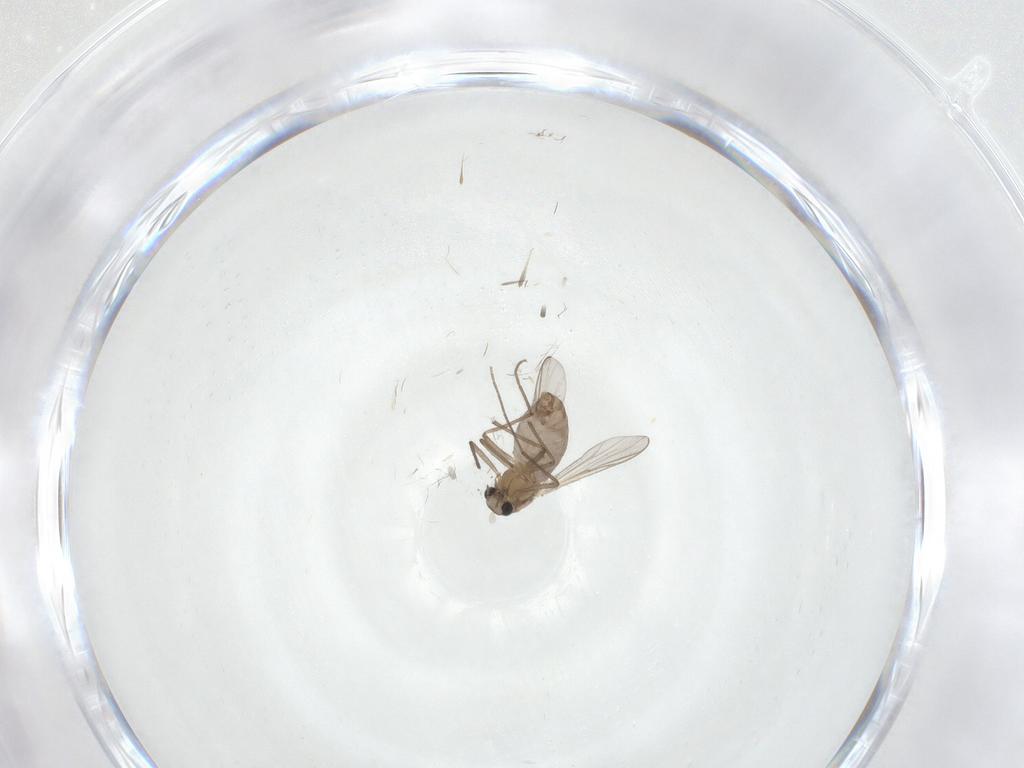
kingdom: Animalia
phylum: Arthropoda
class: Insecta
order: Diptera
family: Chironomidae
